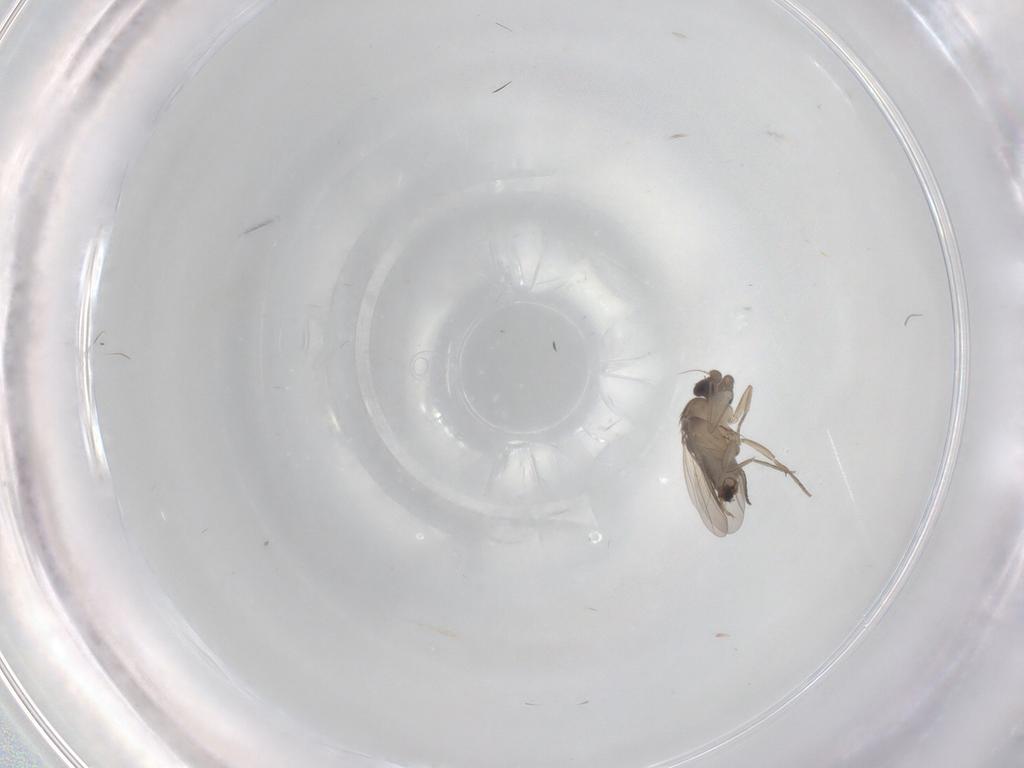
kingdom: Animalia
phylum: Arthropoda
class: Insecta
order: Diptera
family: Phoridae
